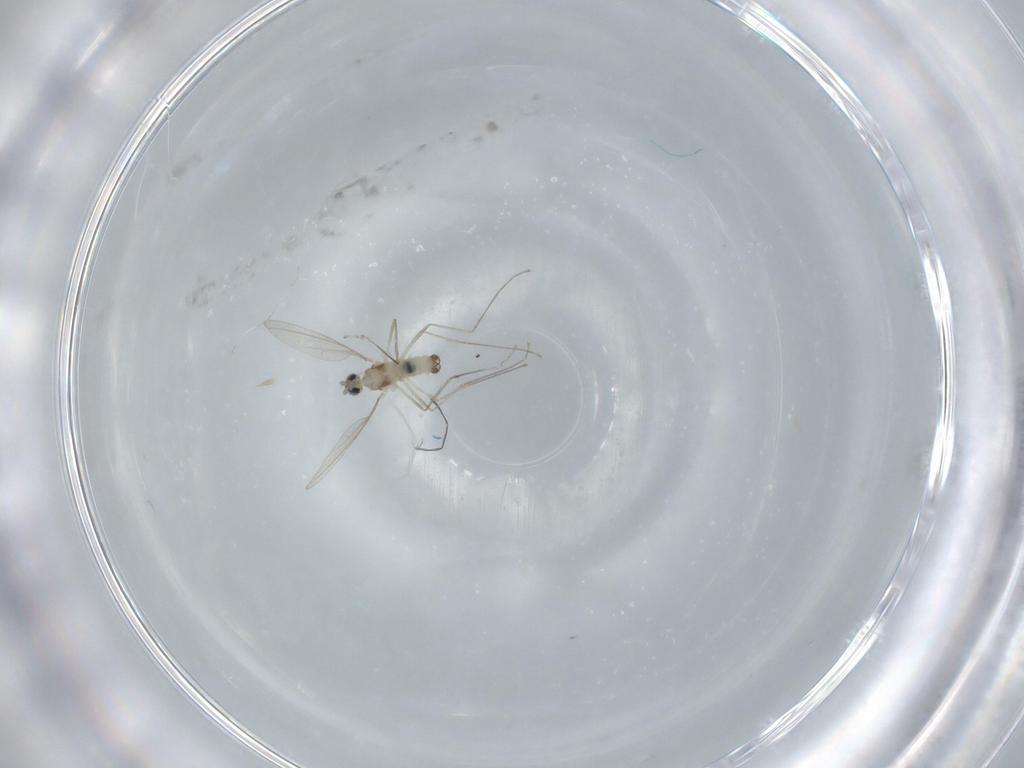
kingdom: Animalia
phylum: Arthropoda
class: Insecta
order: Diptera
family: Cecidomyiidae
